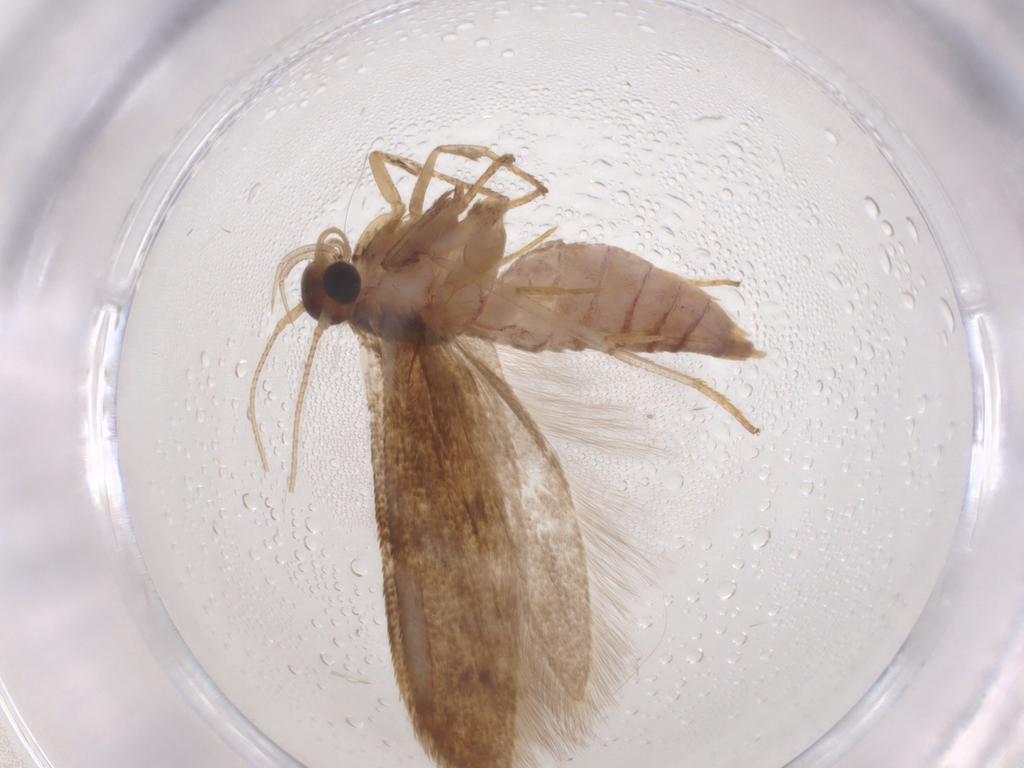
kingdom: Animalia
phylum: Arthropoda
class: Insecta
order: Lepidoptera
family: Blastobasidae
